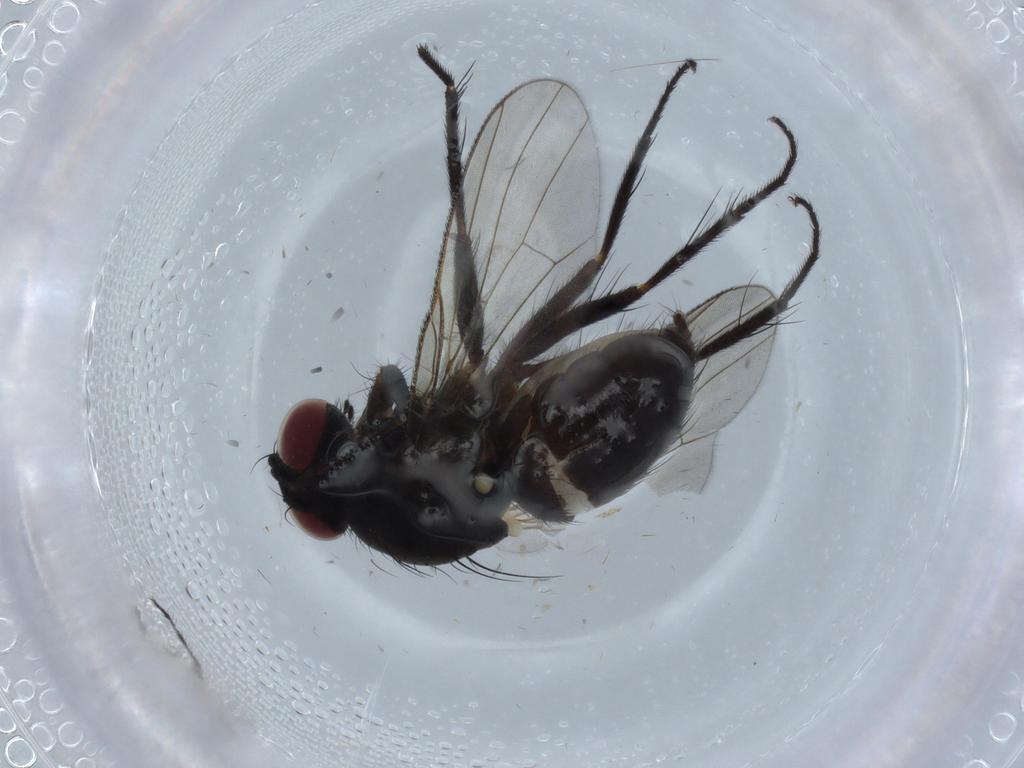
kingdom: Animalia
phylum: Arthropoda
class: Insecta
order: Diptera
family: Muscidae
